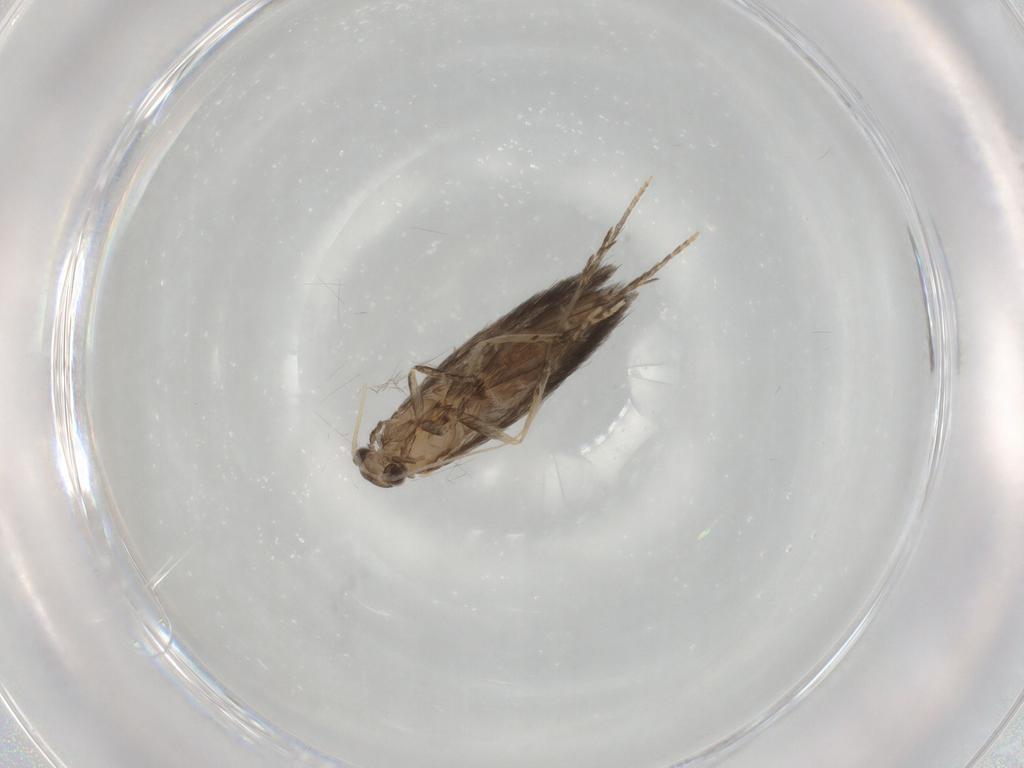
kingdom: Animalia
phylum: Arthropoda
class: Insecta
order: Trichoptera
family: Hydroptilidae
